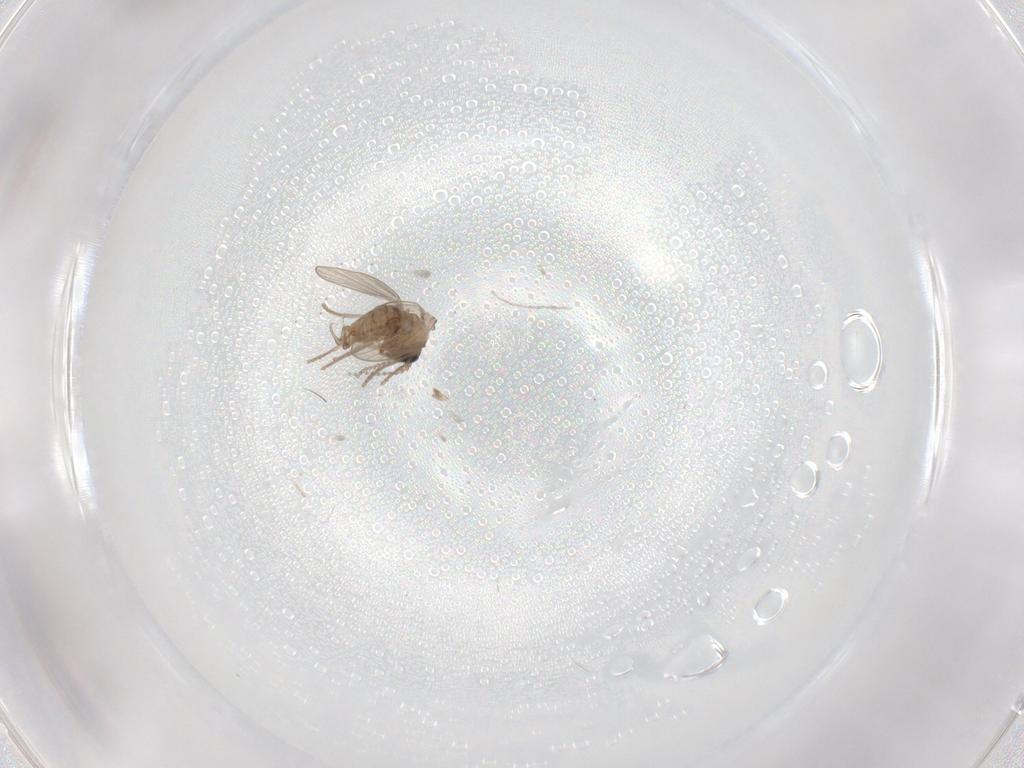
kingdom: Animalia
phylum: Arthropoda
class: Insecta
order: Diptera
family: Psychodidae
